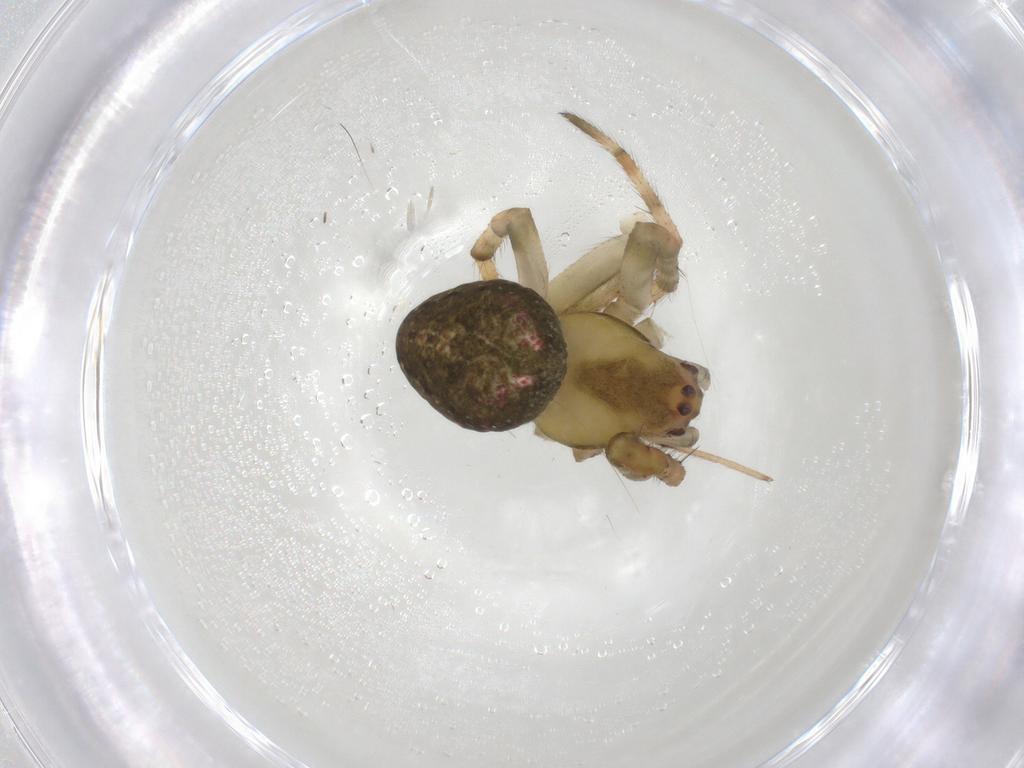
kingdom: Animalia
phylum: Arthropoda
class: Arachnida
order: Araneae
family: Araneidae
